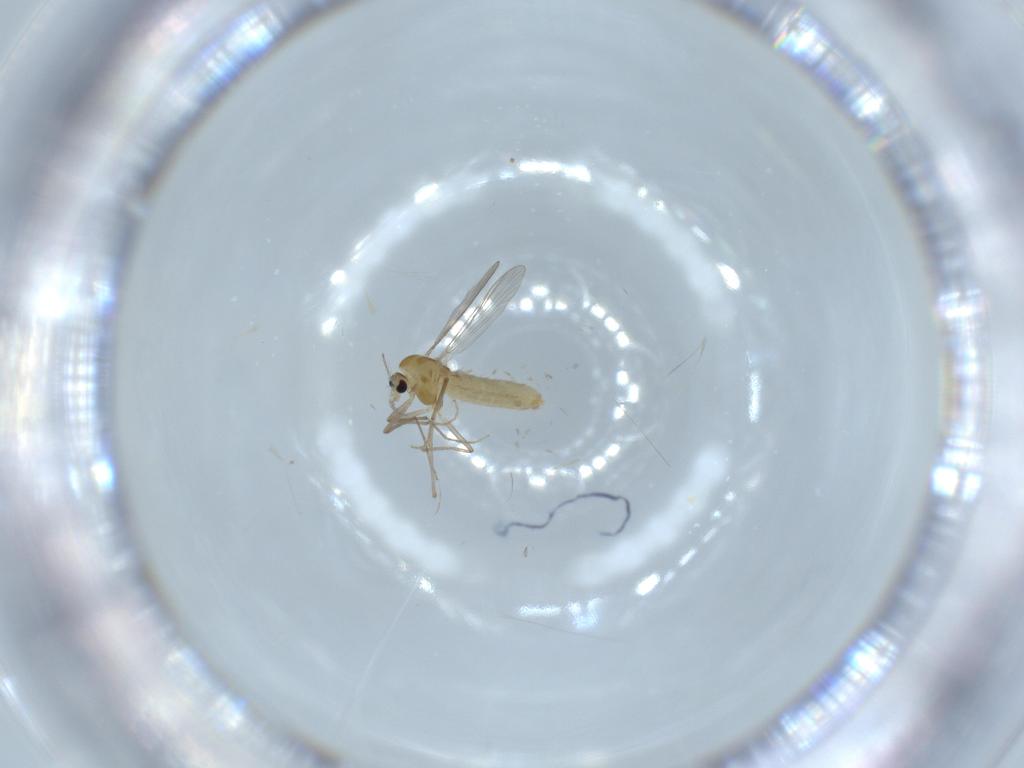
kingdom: Animalia
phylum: Arthropoda
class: Insecta
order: Diptera
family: Chironomidae
